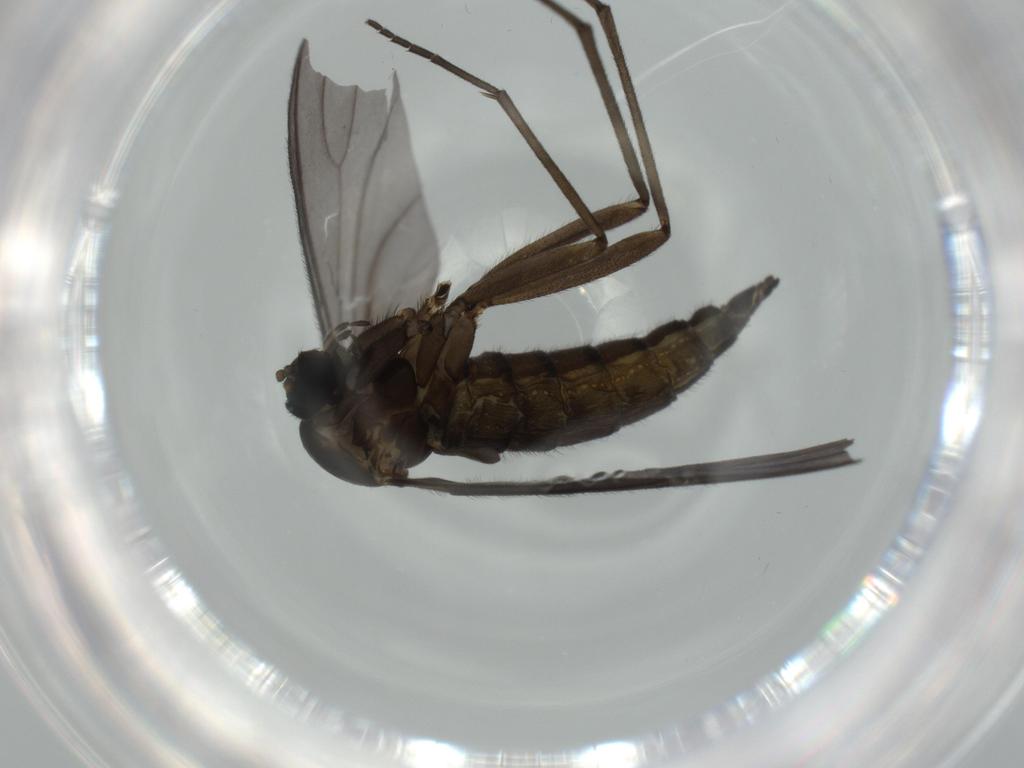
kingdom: Animalia
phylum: Arthropoda
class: Insecta
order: Diptera
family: Sciaridae
